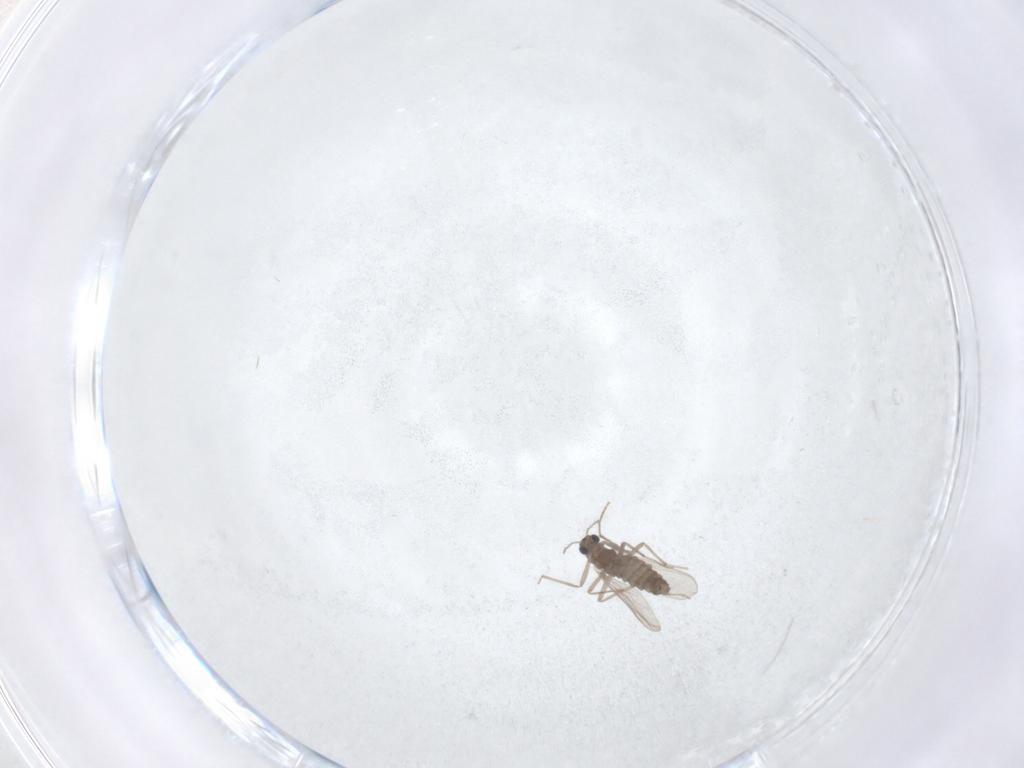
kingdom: Animalia
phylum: Arthropoda
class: Insecta
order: Diptera
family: Chironomidae
